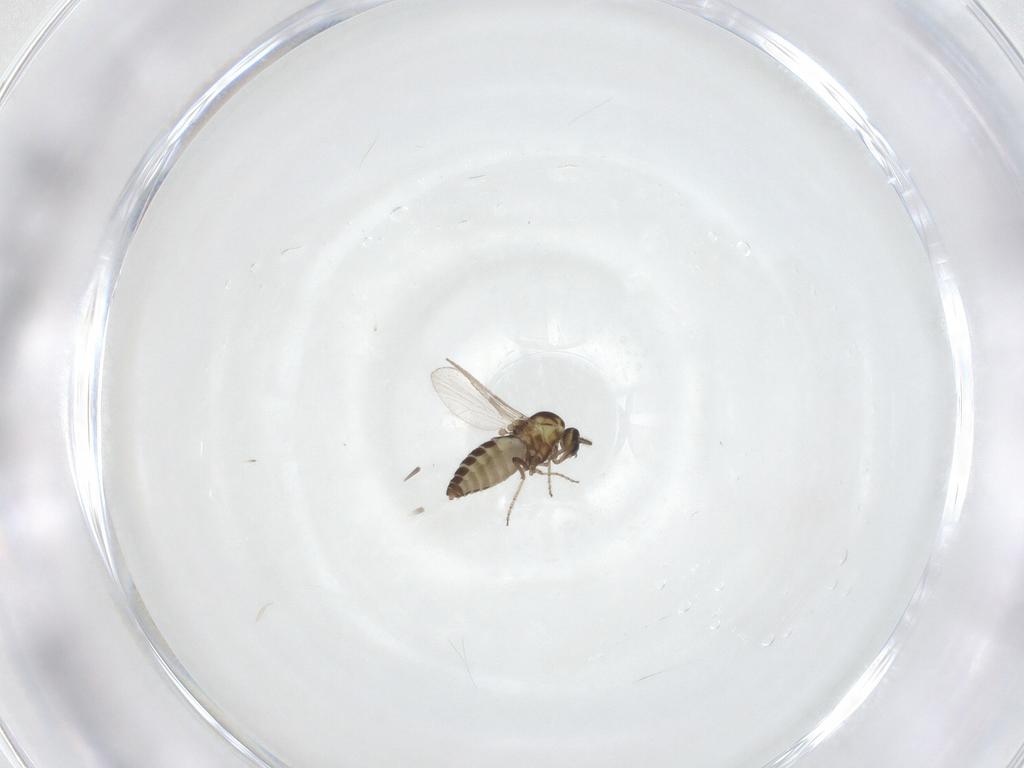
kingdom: Animalia
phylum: Arthropoda
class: Insecta
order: Diptera
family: Ceratopogonidae
